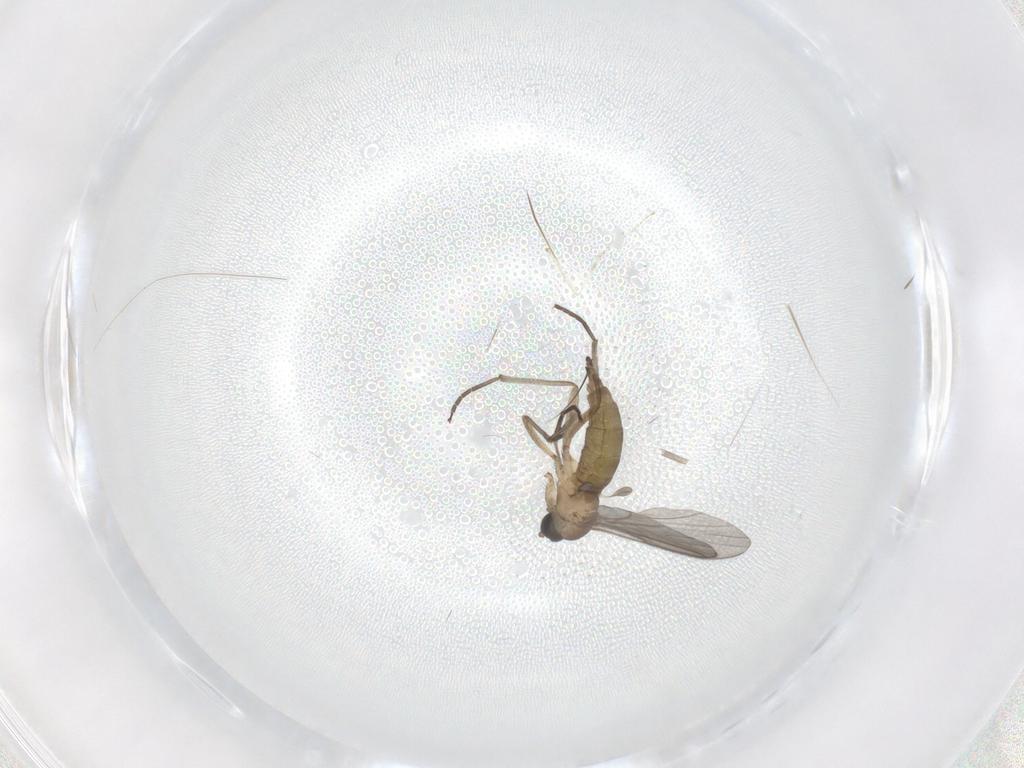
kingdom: Animalia
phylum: Arthropoda
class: Insecta
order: Diptera
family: Sciaridae
